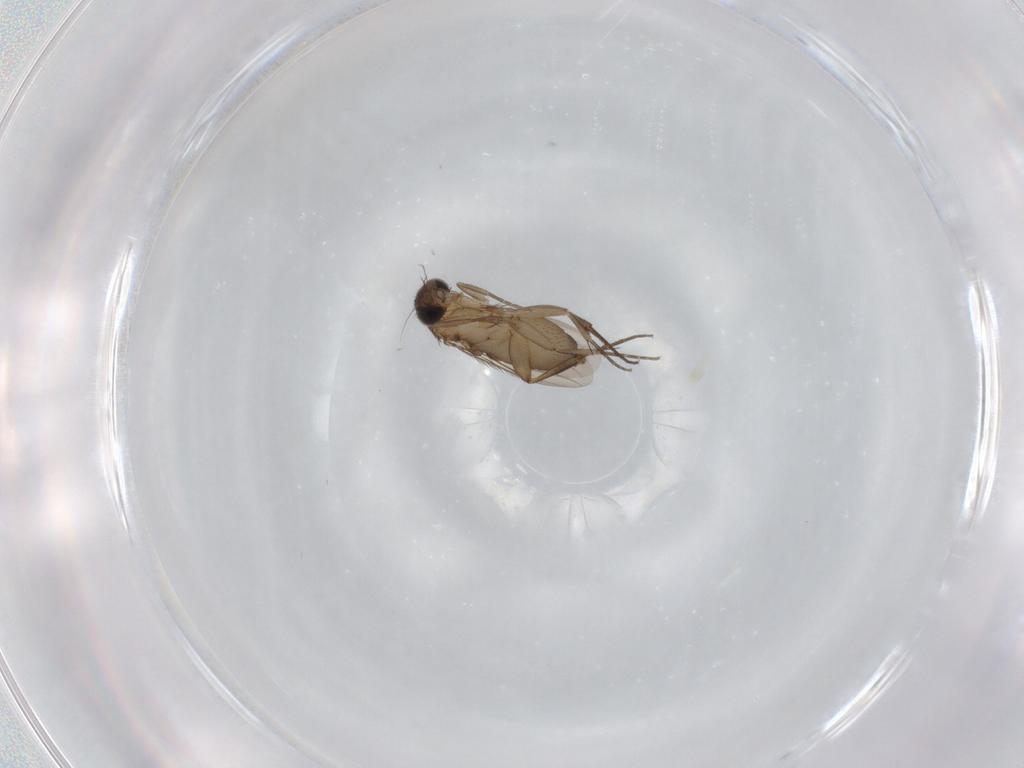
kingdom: Animalia
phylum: Arthropoda
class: Insecta
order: Diptera
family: Phoridae
